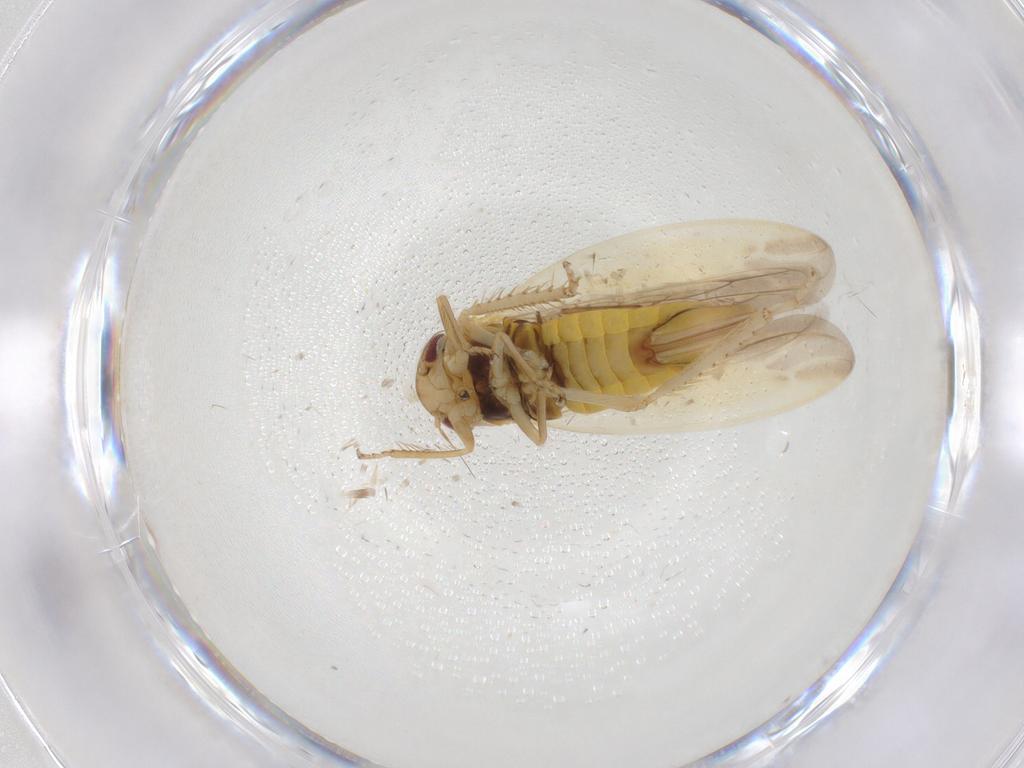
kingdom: Animalia
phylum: Arthropoda
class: Insecta
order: Hemiptera
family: Cicadellidae
